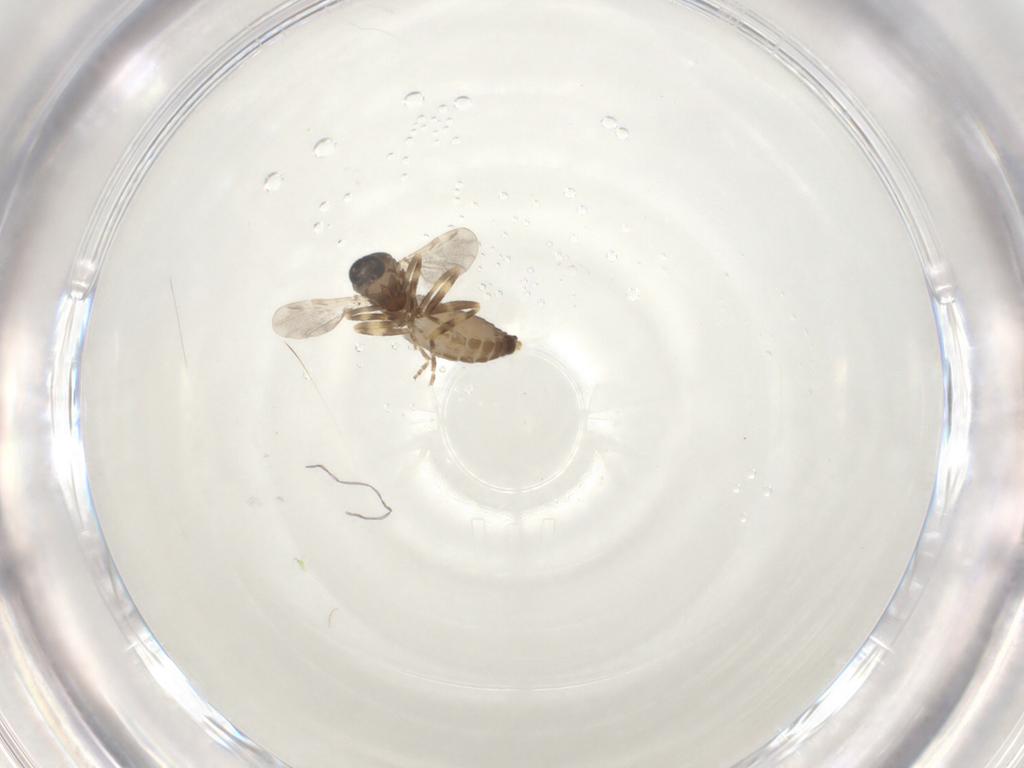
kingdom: Animalia
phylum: Arthropoda
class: Insecta
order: Diptera
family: Ceratopogonidae
